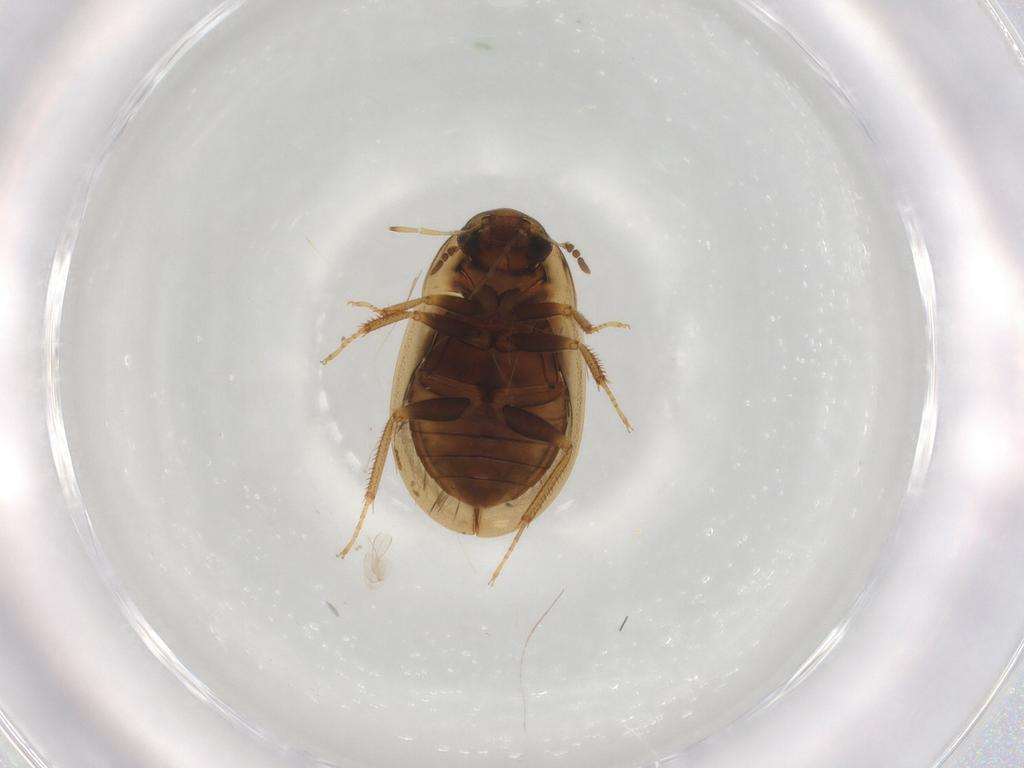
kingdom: Animalia
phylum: Arthropoda
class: Insecta
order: Coleoptera
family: Hydrophilidae
